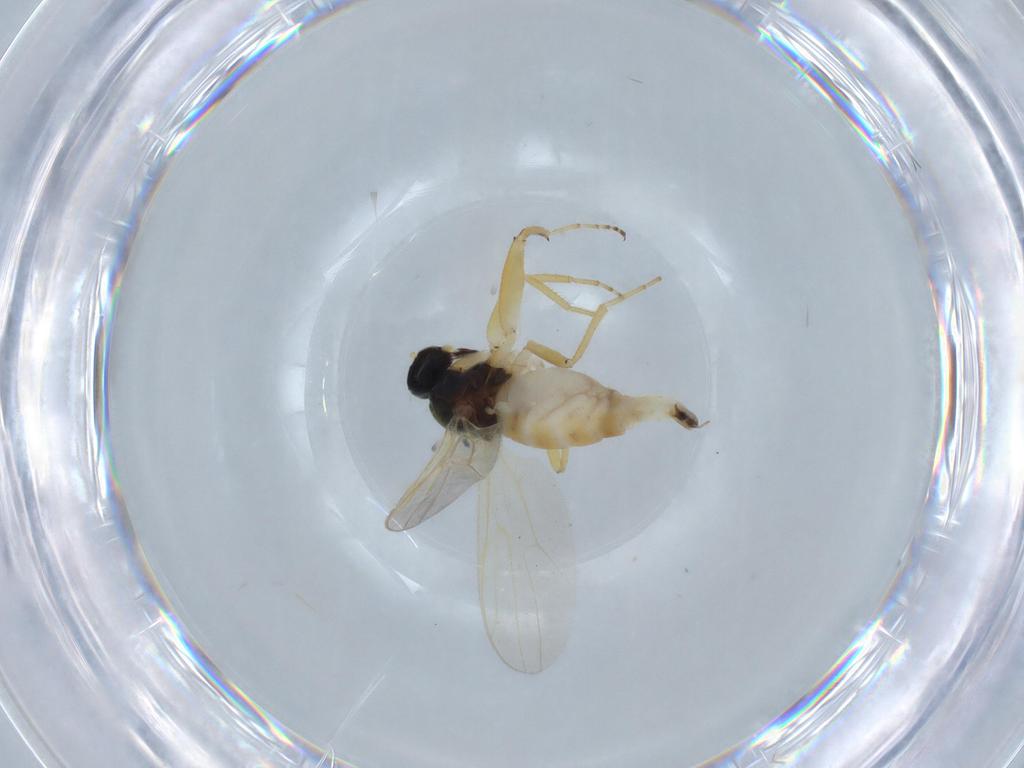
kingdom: Animalia
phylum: Arthropoda
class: Insecta
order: Diptera
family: Hybotidae
